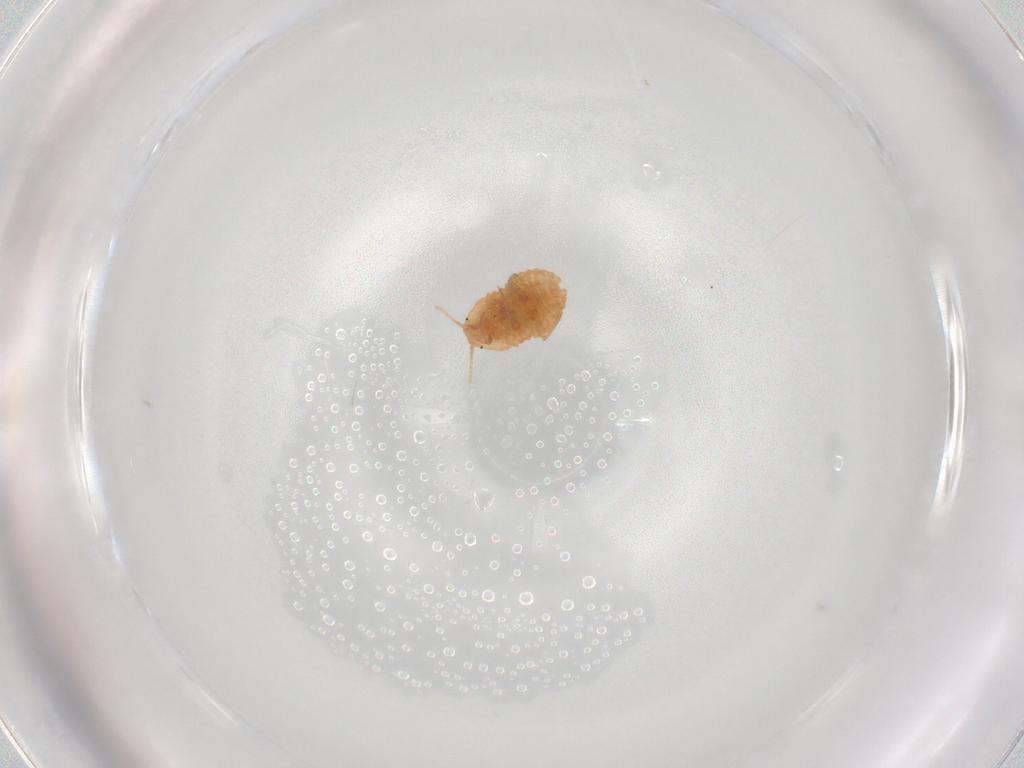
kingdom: Animalia
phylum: Arthropoda
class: Insecta
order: Hemiptera
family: Pseudococcidae
